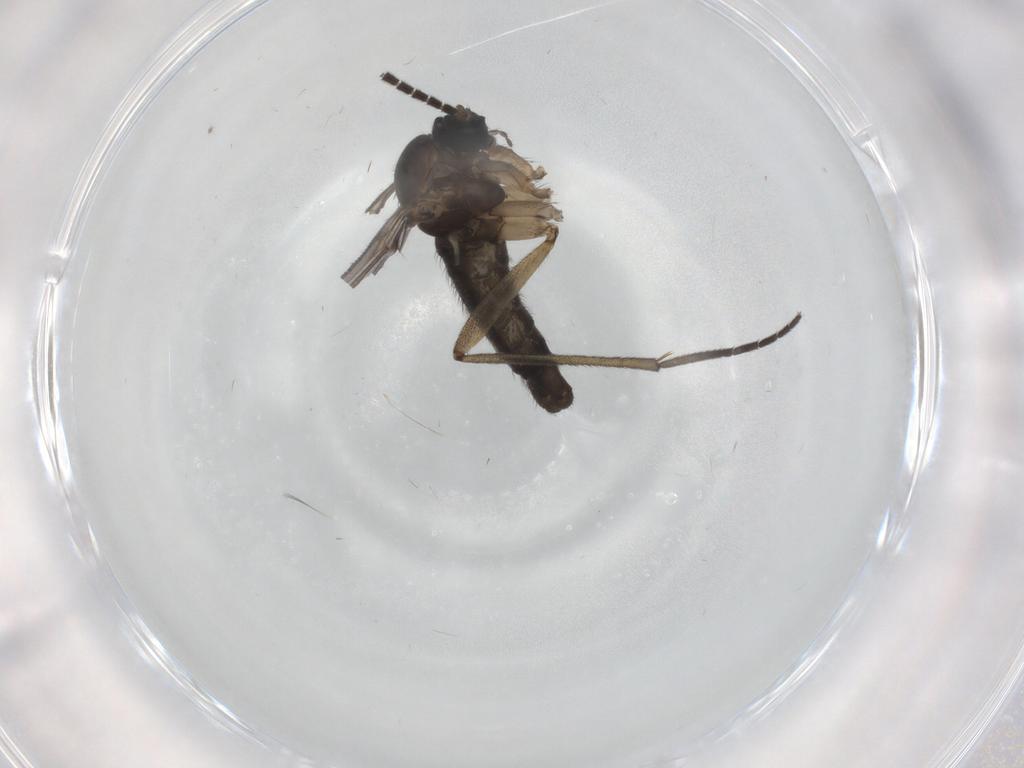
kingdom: Animalia
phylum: Arthropoda
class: Insecta
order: Diptera
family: Sciaridae
